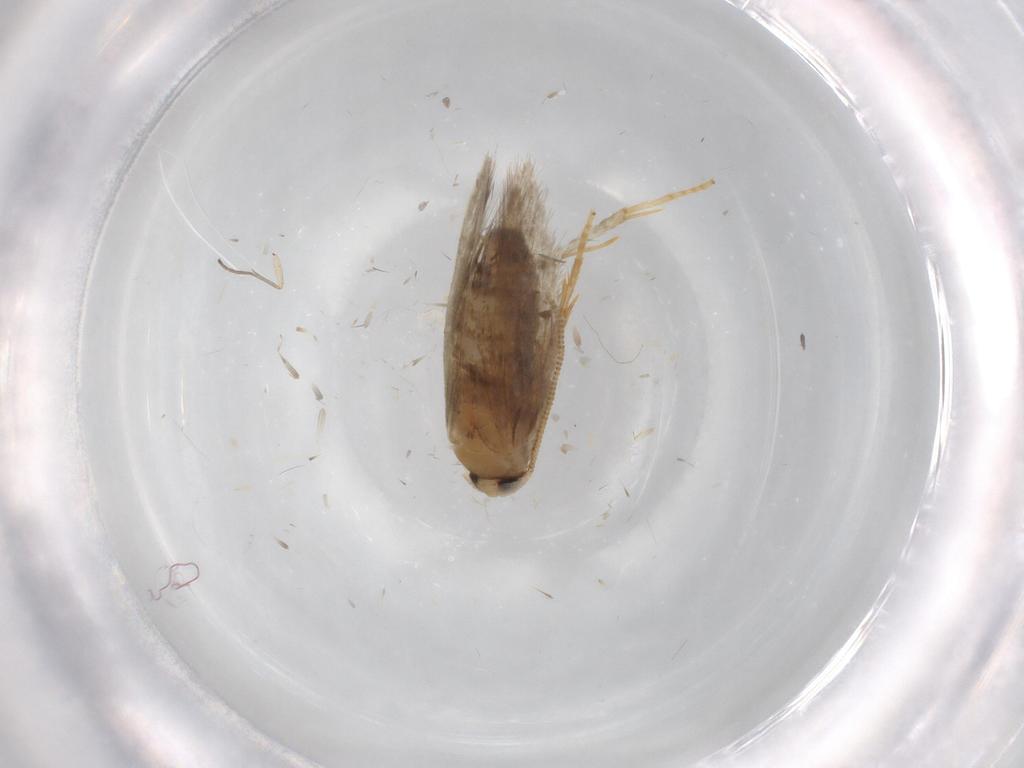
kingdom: Animalia
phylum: Arthropoda
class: Insecta
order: Lepidoptera
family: Nepticulidae
